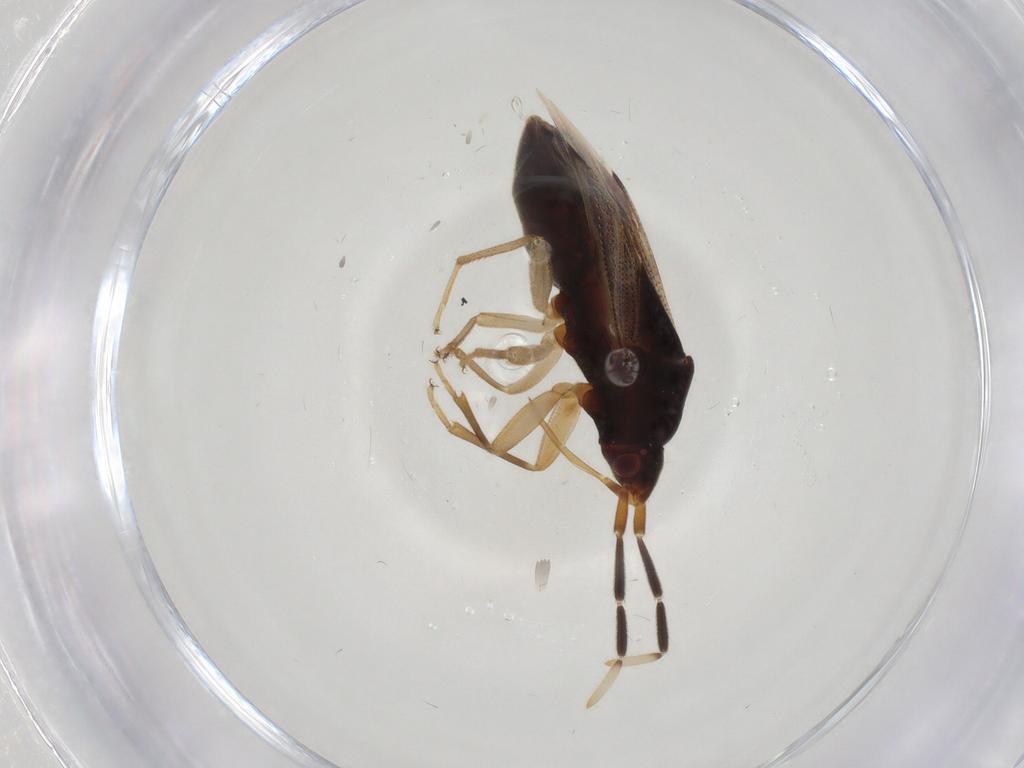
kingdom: Animalia
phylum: Arthropoda
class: Insecta
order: Hemiptera
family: Rhyparochromidae
